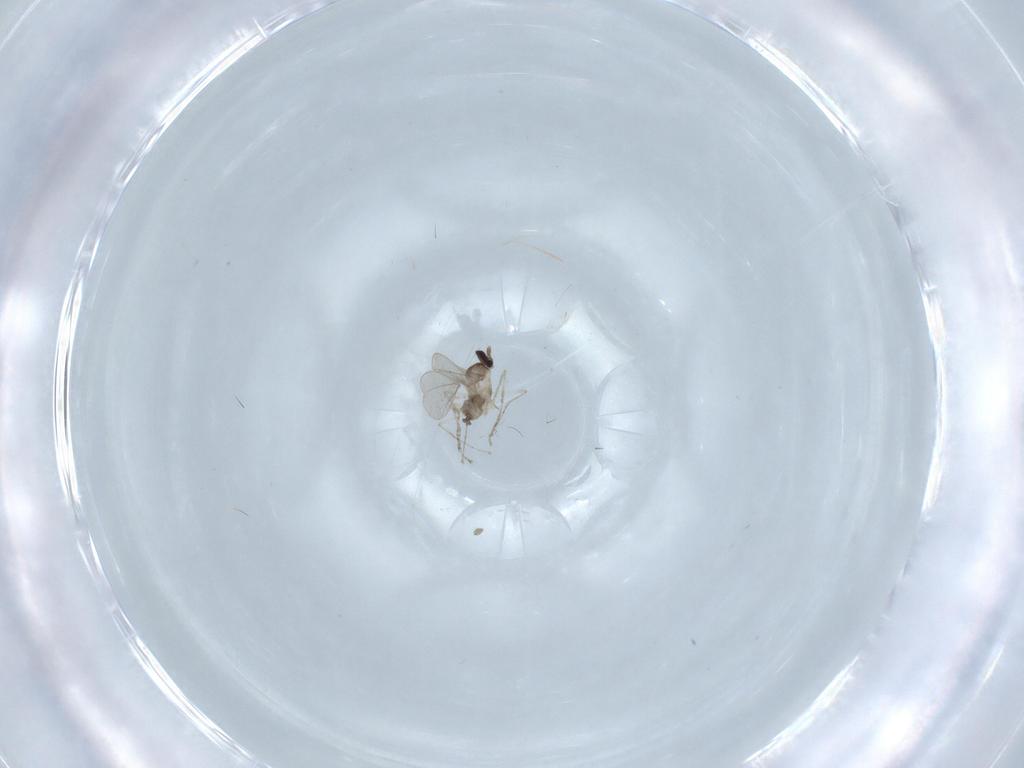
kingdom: Animalia
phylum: Arthropoda
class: Insecta
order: Diptera
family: Cecidomyiidae
